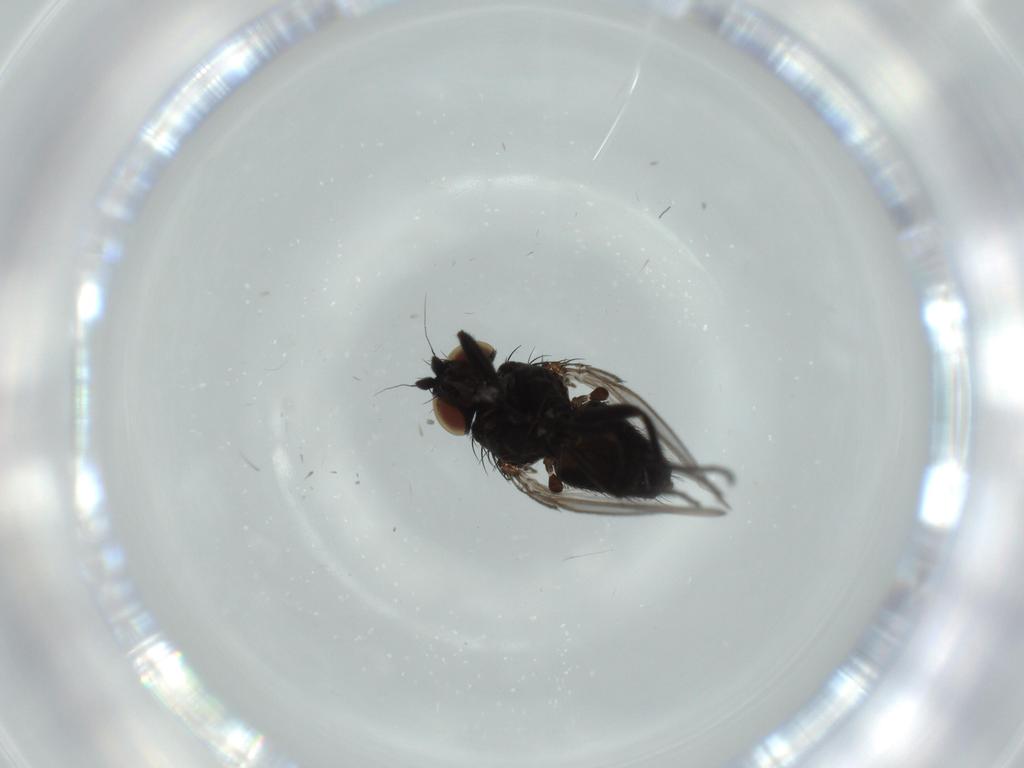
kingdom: Animalia
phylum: Arthropoda
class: Insecta
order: Diptera
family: Milichiidae
